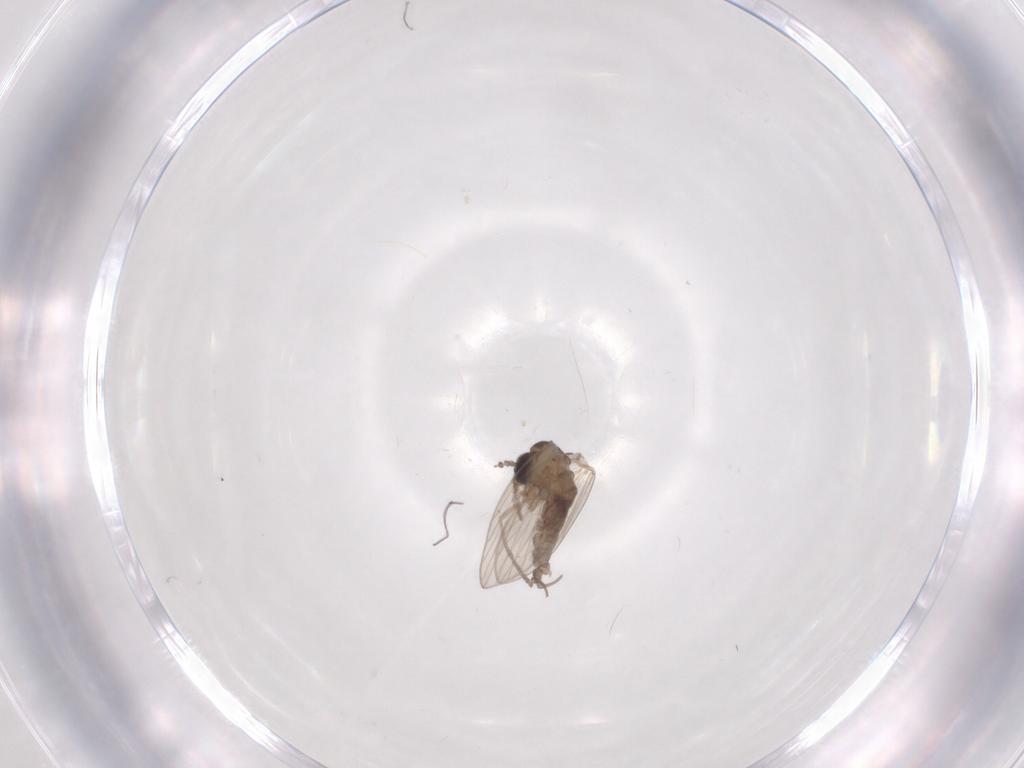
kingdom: Animalia
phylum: Arthropoda
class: Insecta
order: Diptera
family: Psychodidae
